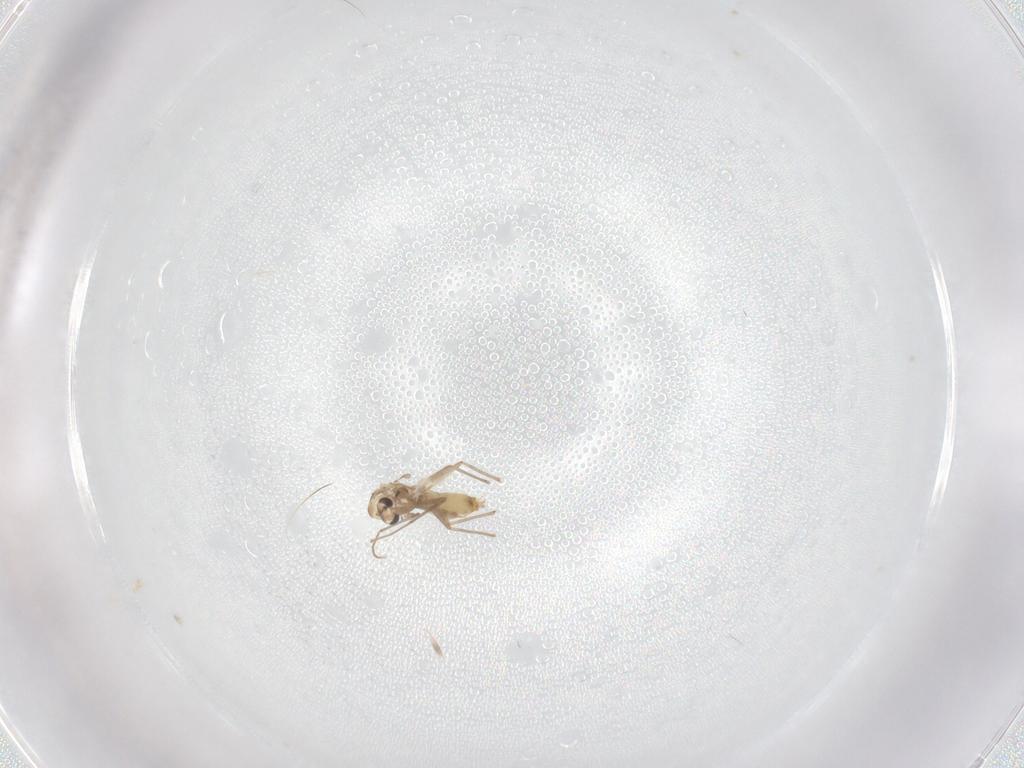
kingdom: Animalia
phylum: Arthropoda
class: Insecta
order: Diptera
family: Chironomidae
